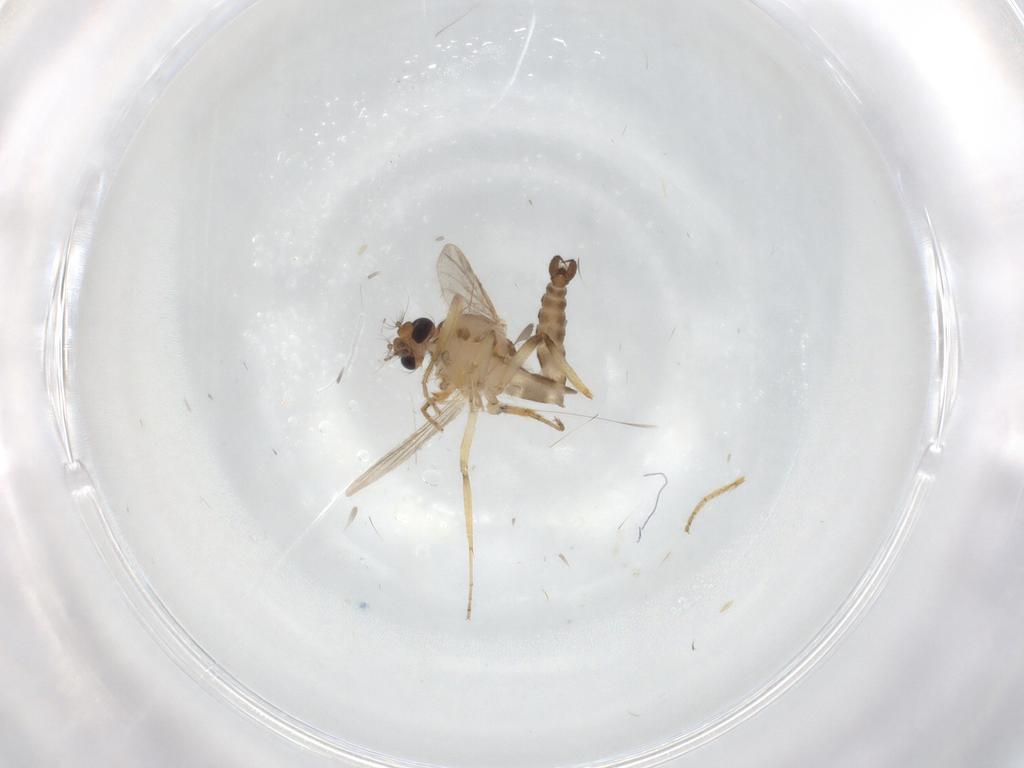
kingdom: Animalia
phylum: Arthropoda
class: Insecta
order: Diptera
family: Ceratopogonidae
